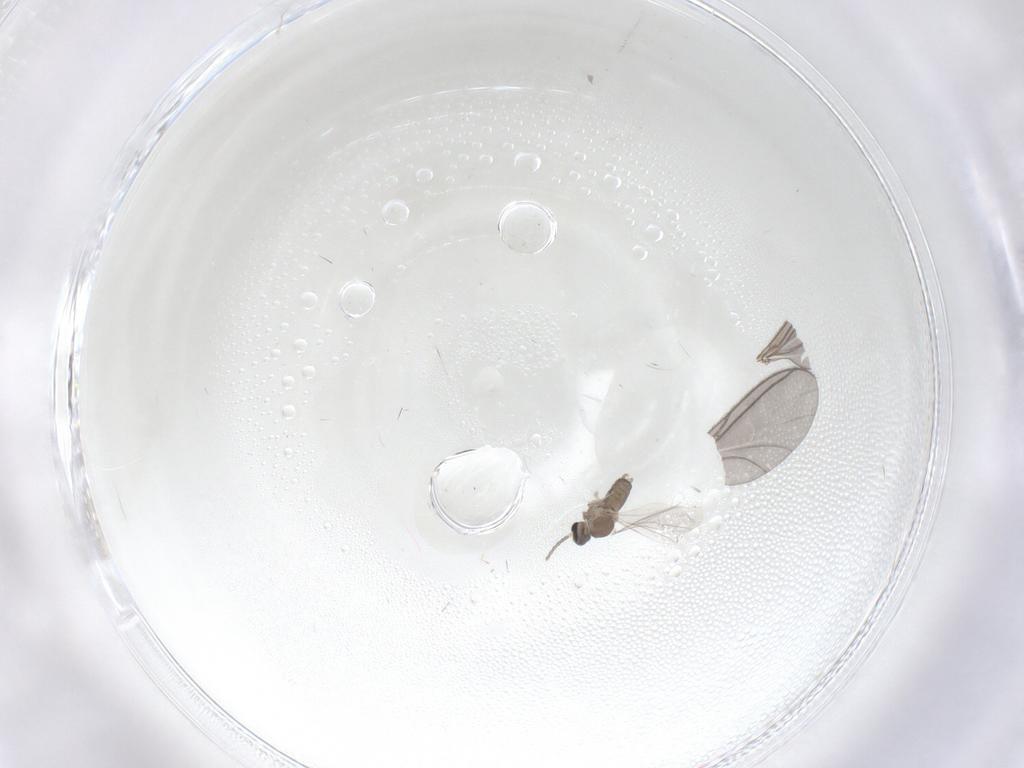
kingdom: Animalia
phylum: Arthropoda
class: Insecta
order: Diptera
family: Cecidomyiidae
